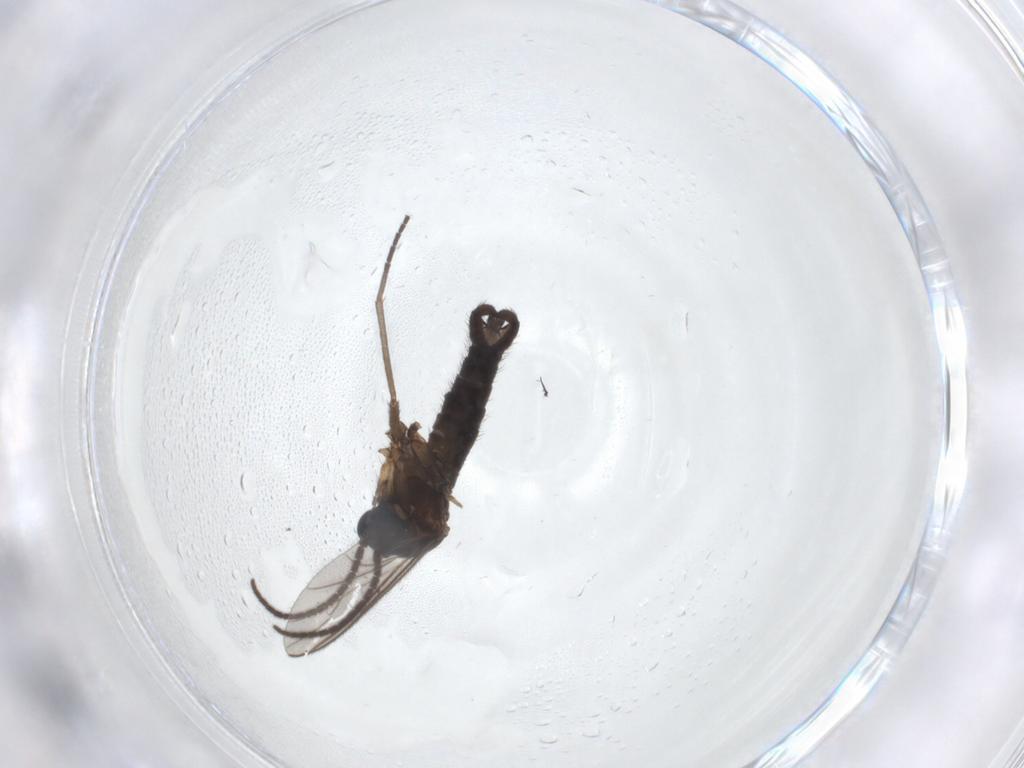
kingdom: Animalia
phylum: Arthropoda
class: Insecta
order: Diptera
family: Sciaridae
